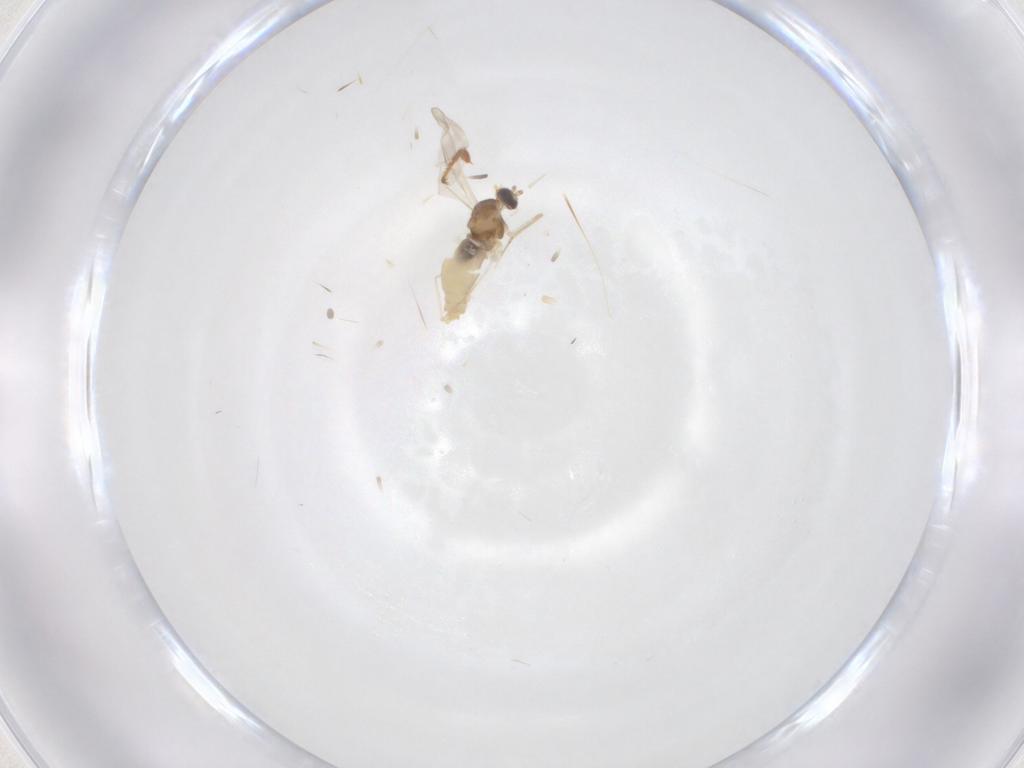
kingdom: Animalia
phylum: Arthropoda
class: Insecta
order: Diptera
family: Cecidomyiidae
